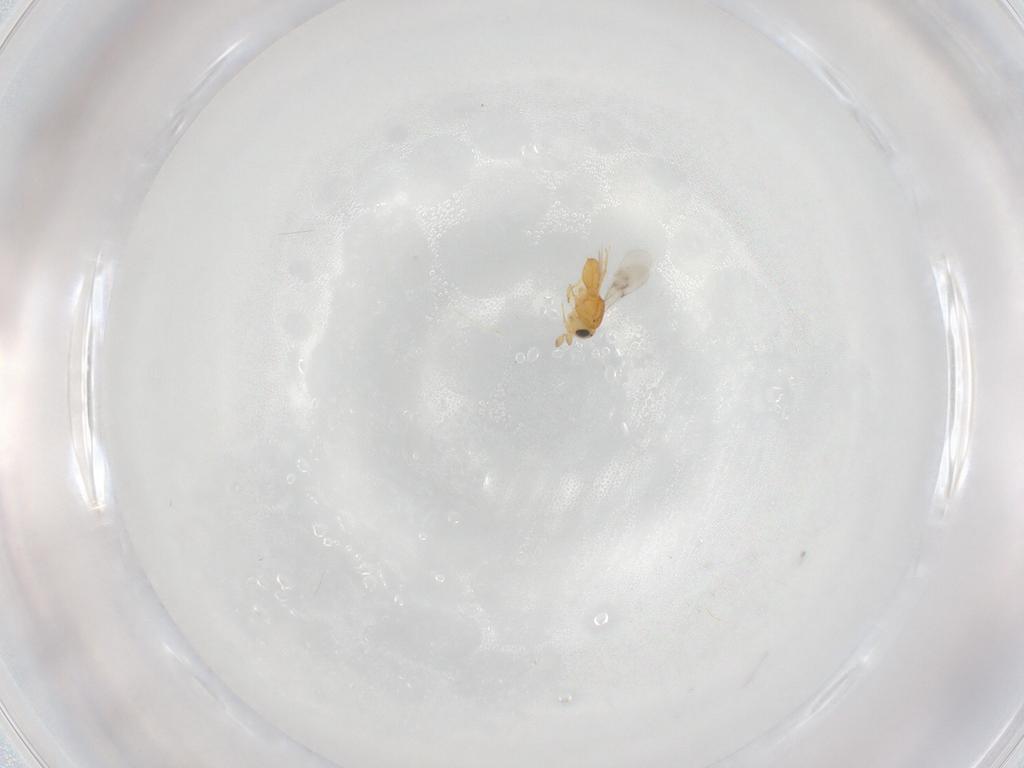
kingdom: Animalia
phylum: Arthropoda
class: Insecta
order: Hymenoptera
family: Scelionidae
